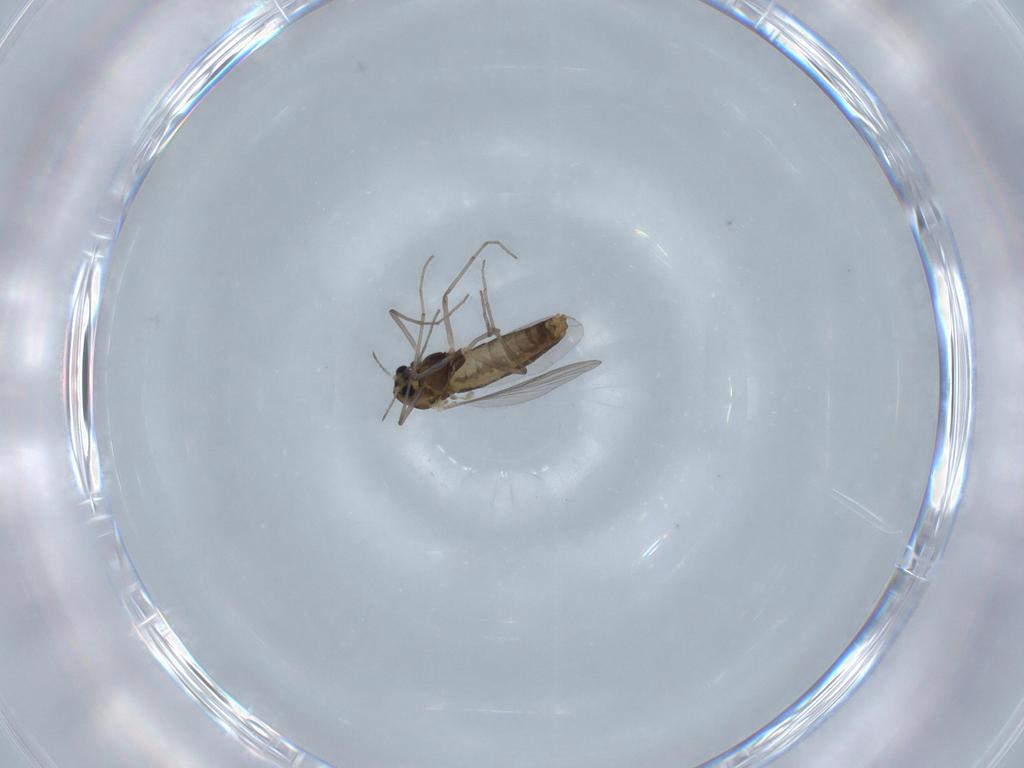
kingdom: Animalia
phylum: Arthropoda
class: Insecta
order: Diptera
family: Chironomidae
